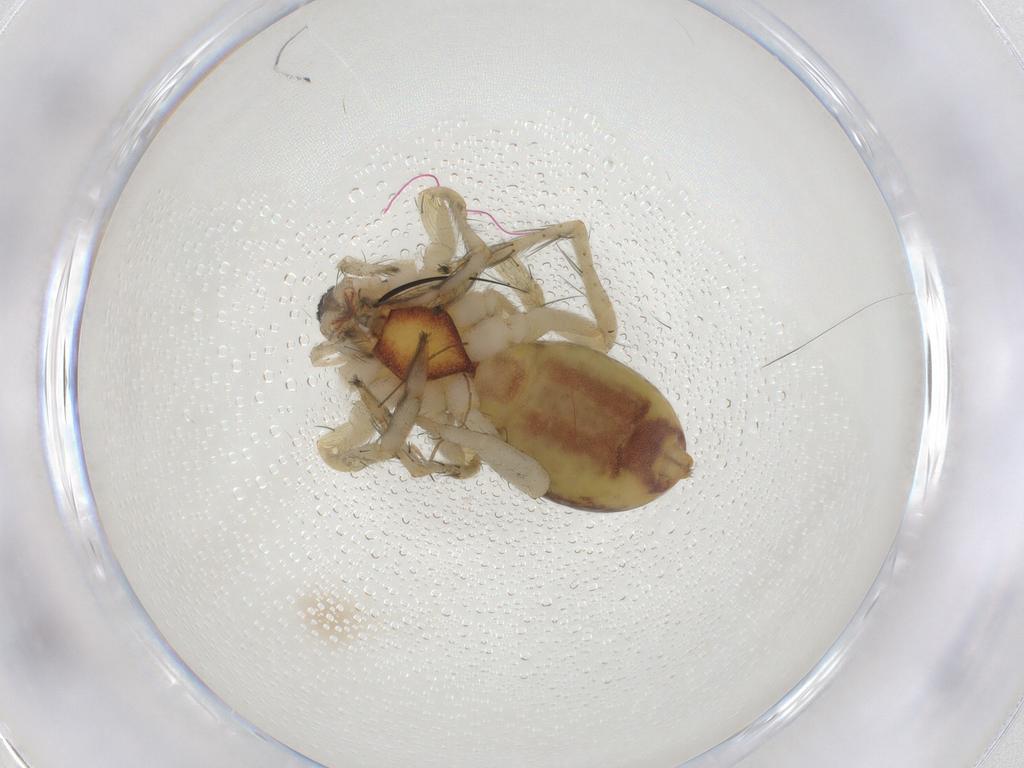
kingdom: Animalia
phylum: Arthropoda
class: Arachnida
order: Araneae
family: Anyphaenidae
